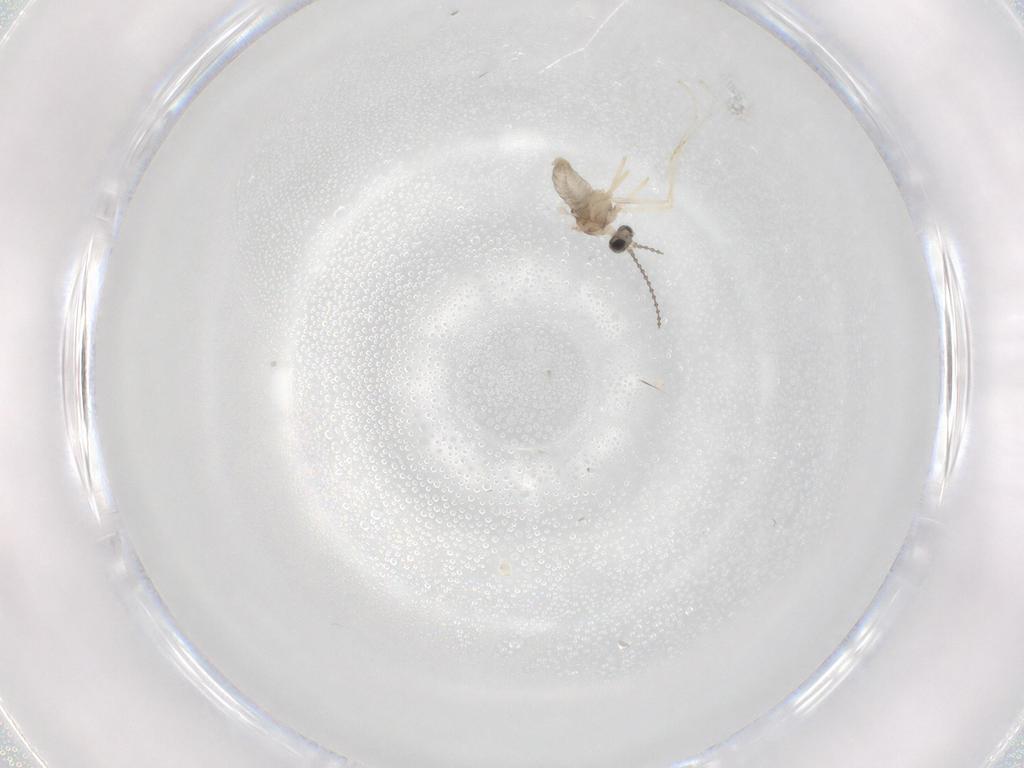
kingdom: Animalia
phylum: Arthropoda
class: Insecta
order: Diptera
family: Cecidomyiidae
